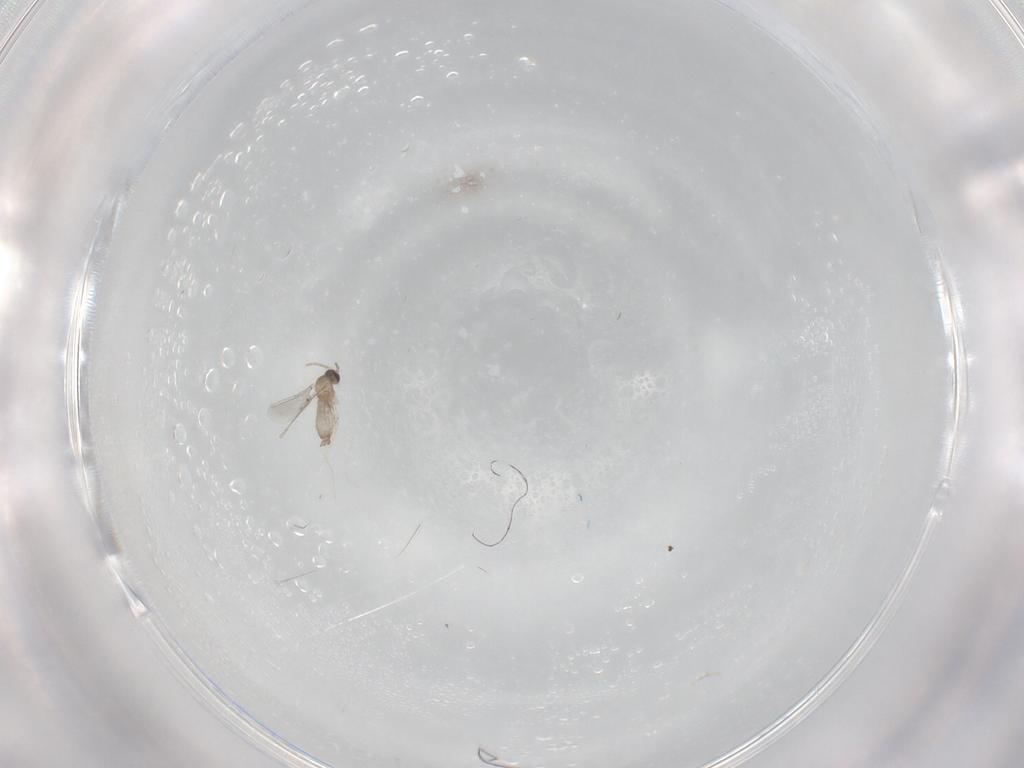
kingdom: Animalia
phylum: Arthropoda
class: Insecta
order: Diptera
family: Cecidomyiidae
